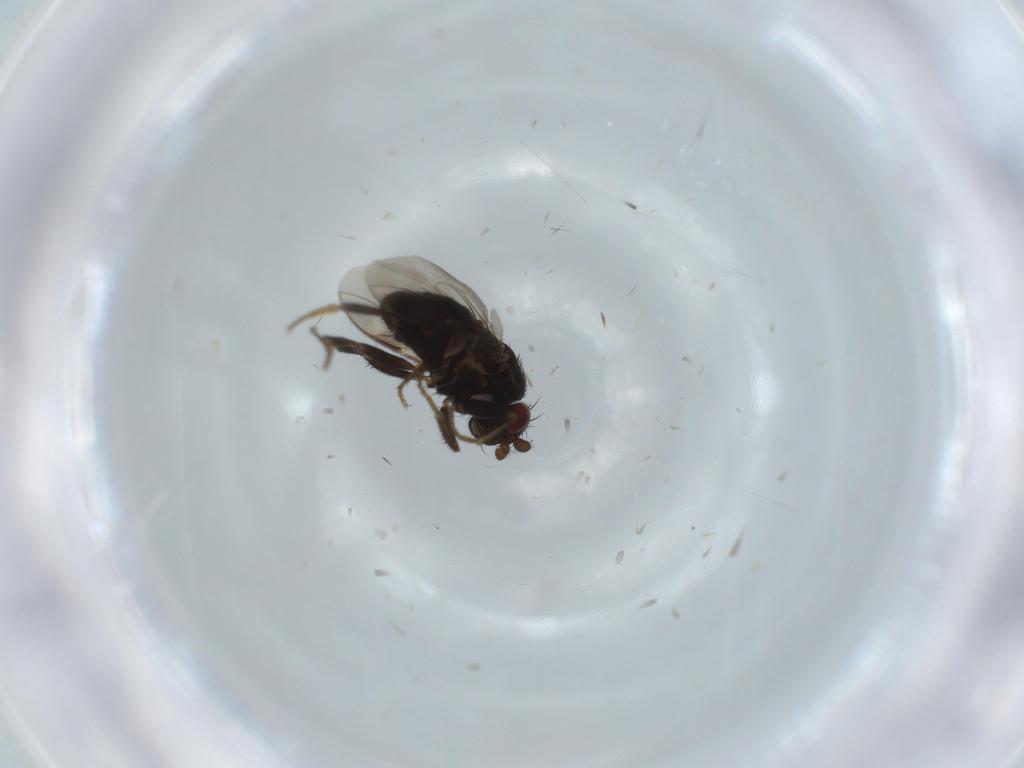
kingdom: Animalia
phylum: Arthropoda
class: Insecta
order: Diptera
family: Sphaeroceridae
